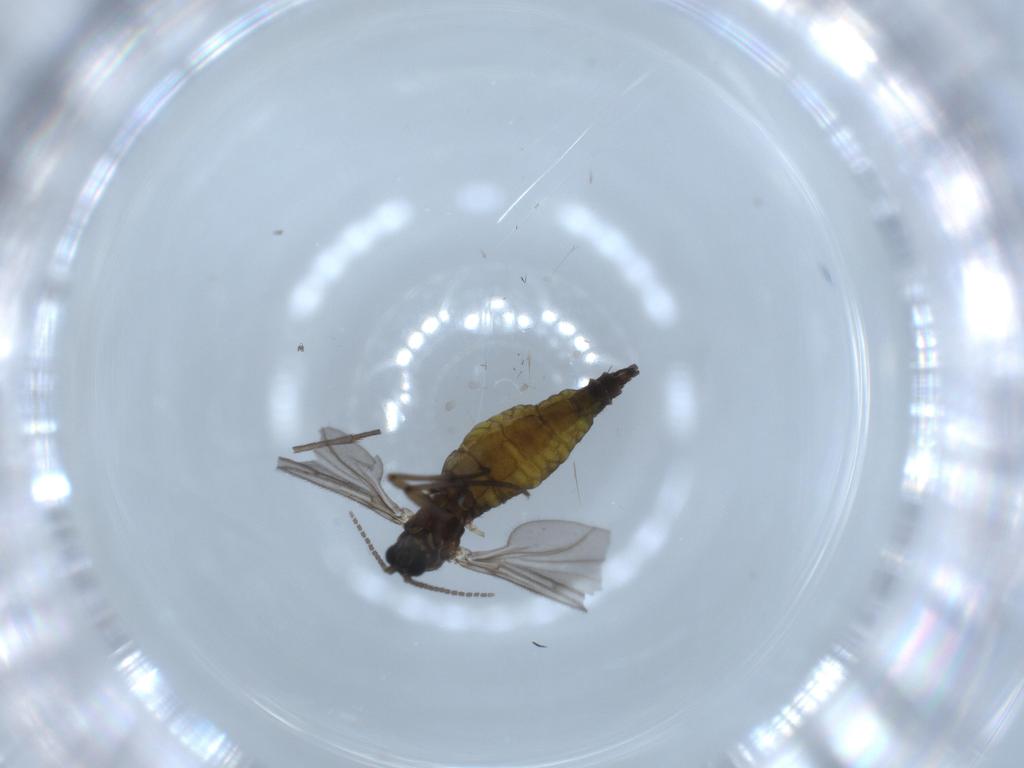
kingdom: Animalia
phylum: Arthropoda
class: Insecta
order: Diptera
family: Sciaridae
